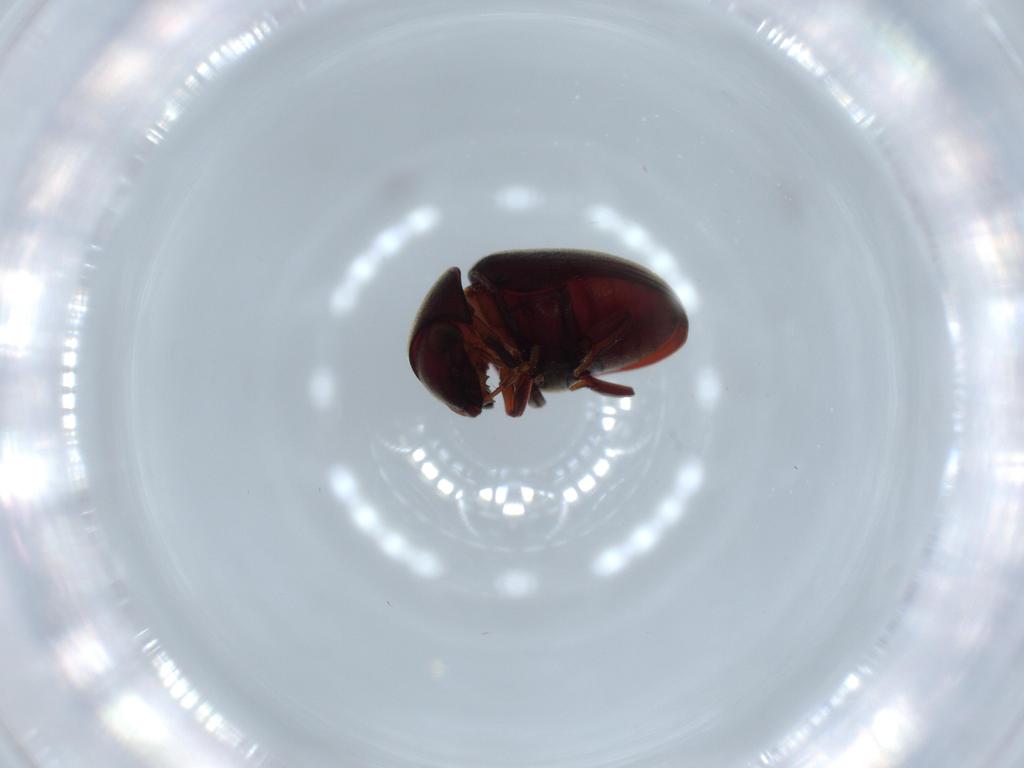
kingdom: Animalia
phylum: Arthropoda
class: Insecta
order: Coleoptera
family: Ptinidae
